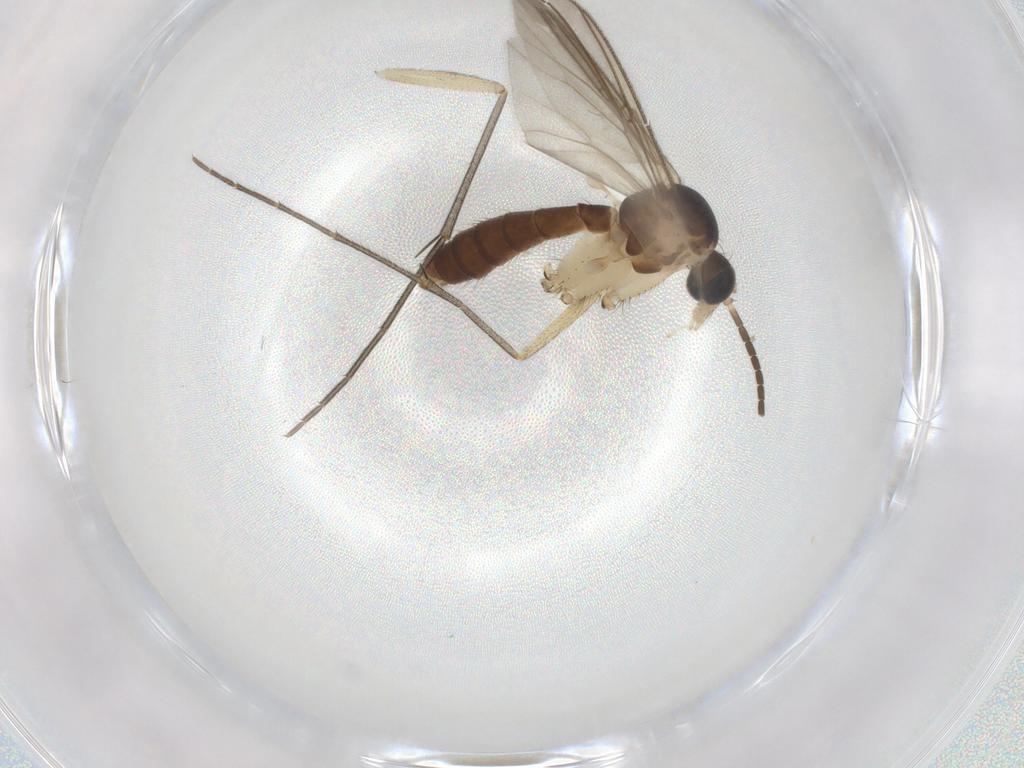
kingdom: Animalia
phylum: Arthropoda
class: Insecta
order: Diptera
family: Mycetophilidae
